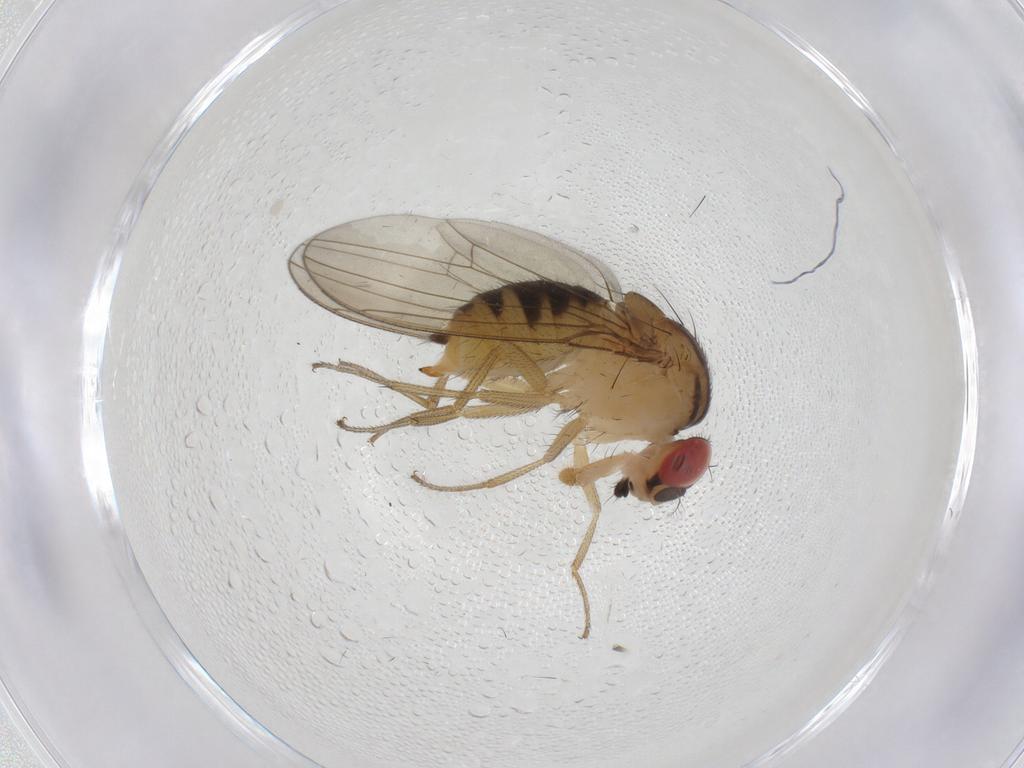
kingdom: Animalia
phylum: Arthropoda
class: Insecta
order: Diptera
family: Drosophilidae
